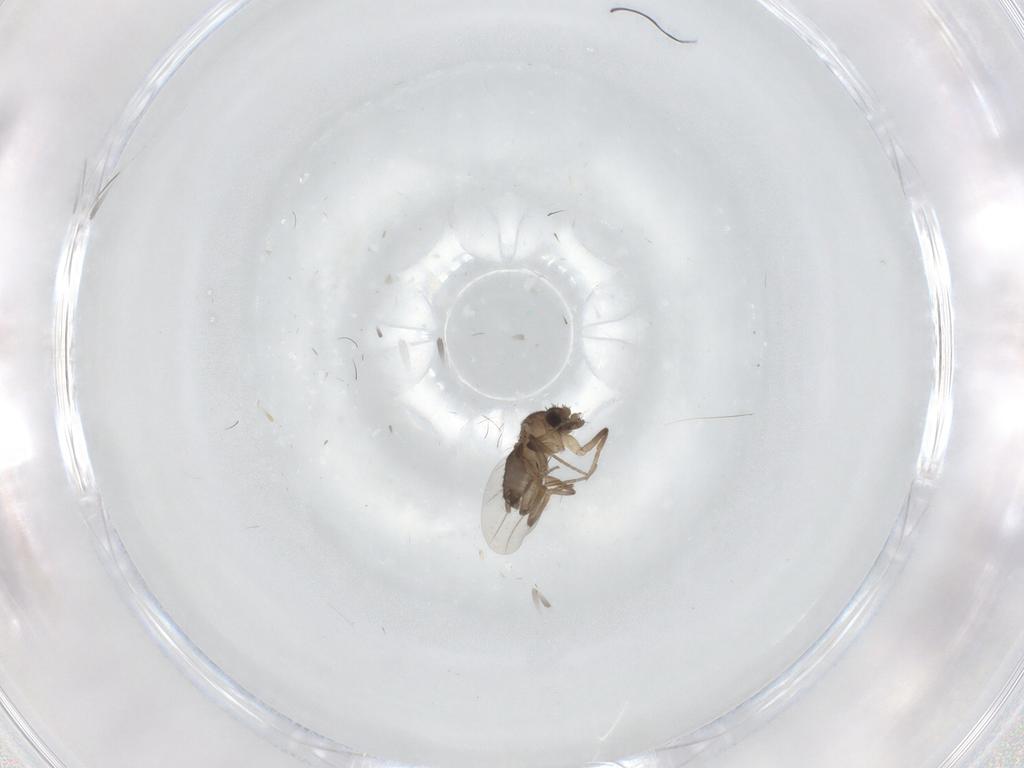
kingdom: Animalia
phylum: Arthropoda
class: Insecta
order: Diptera
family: Phoridae
